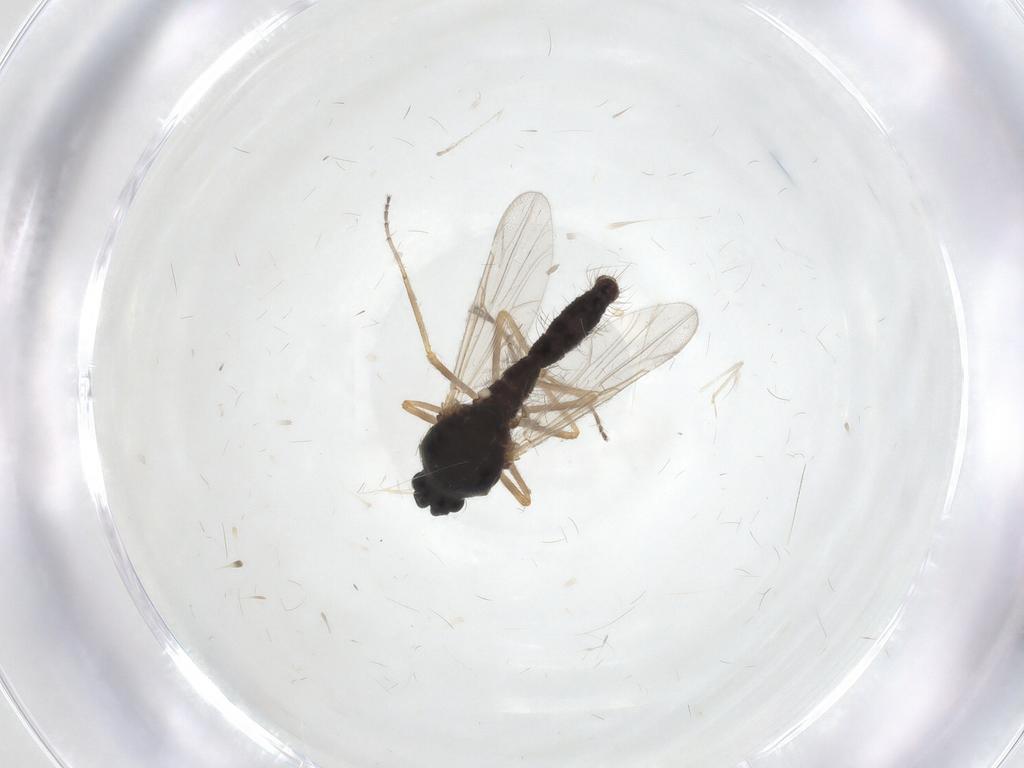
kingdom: Animalia
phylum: Arthropoda
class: Insecta
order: Diptera
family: Ceratopogonidae
